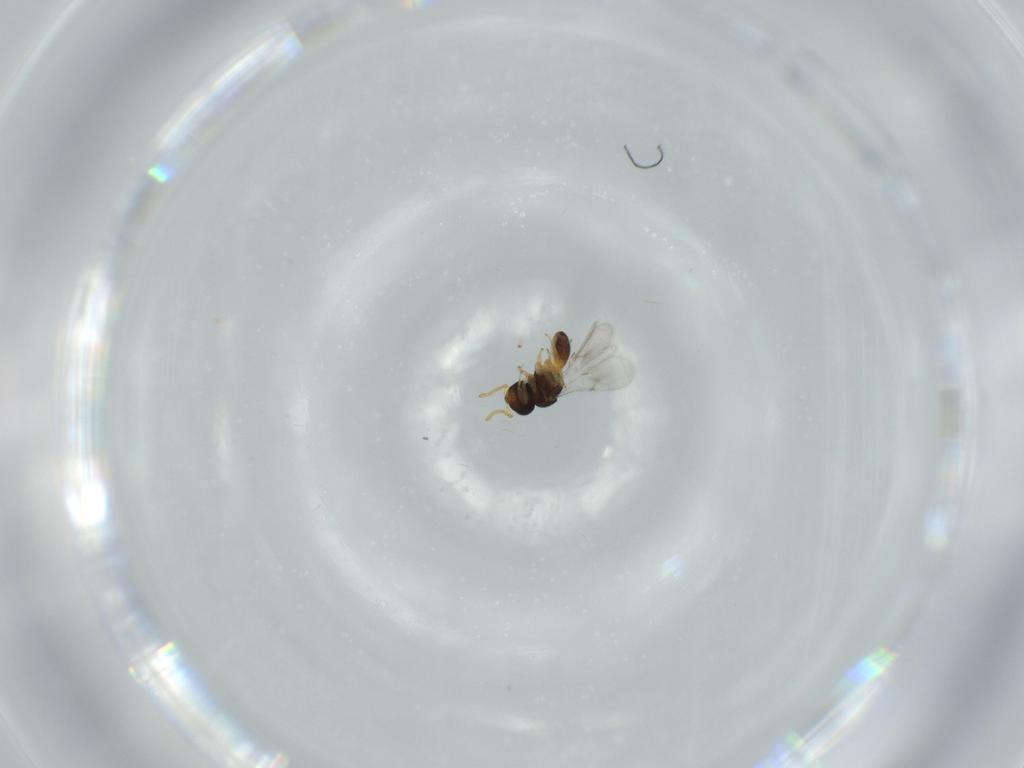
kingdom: Animalia
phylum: Arthropoda
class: Insecta
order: Hymenoptera
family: Scelionidae
